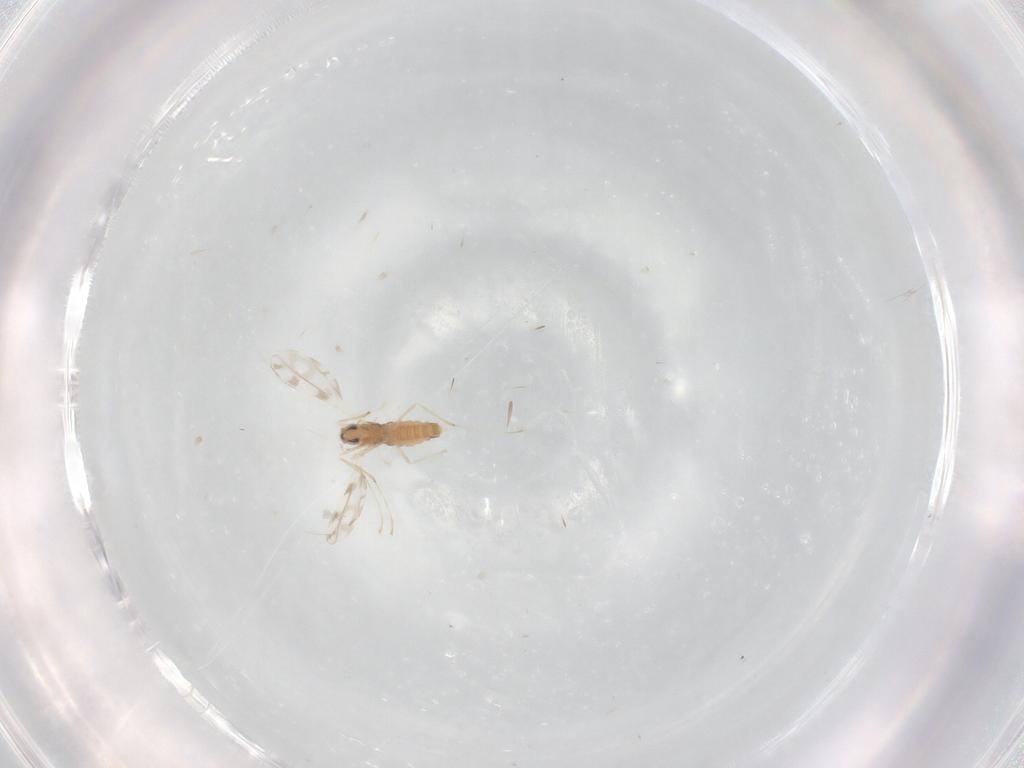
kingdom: Animalia
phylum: Arthropoda
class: Insecta
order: Diptera
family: Cecidomyiidae
